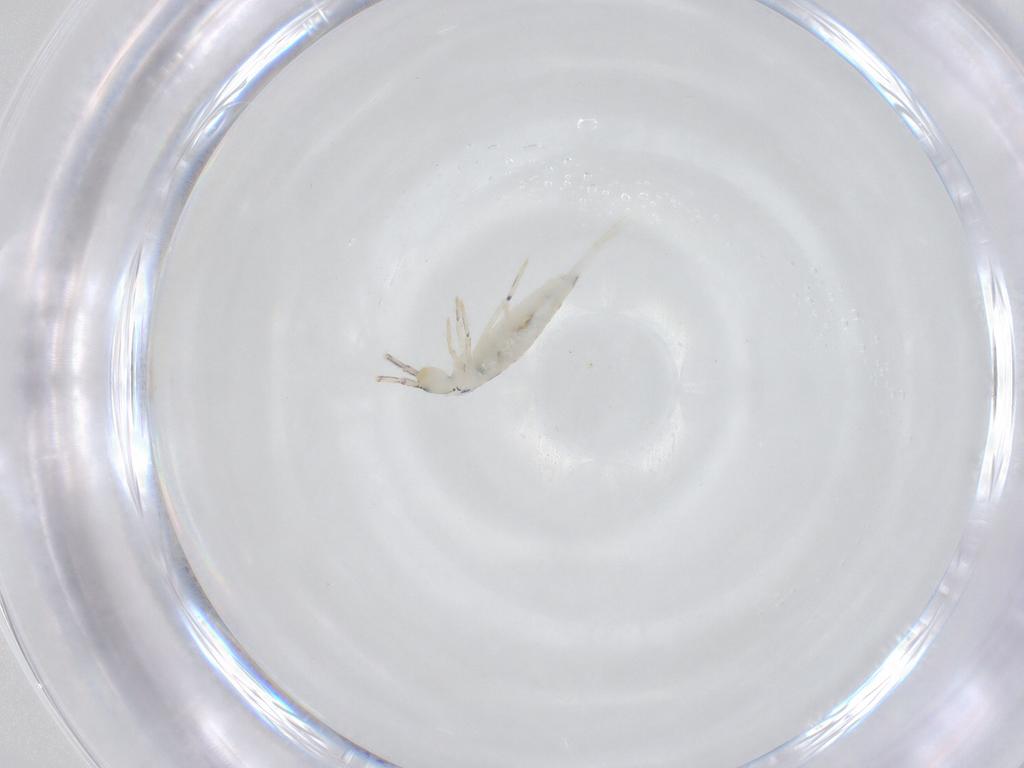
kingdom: Animalia
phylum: Arthropoda
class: Collembola
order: Entomobryomorpha
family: Entomobryidae
